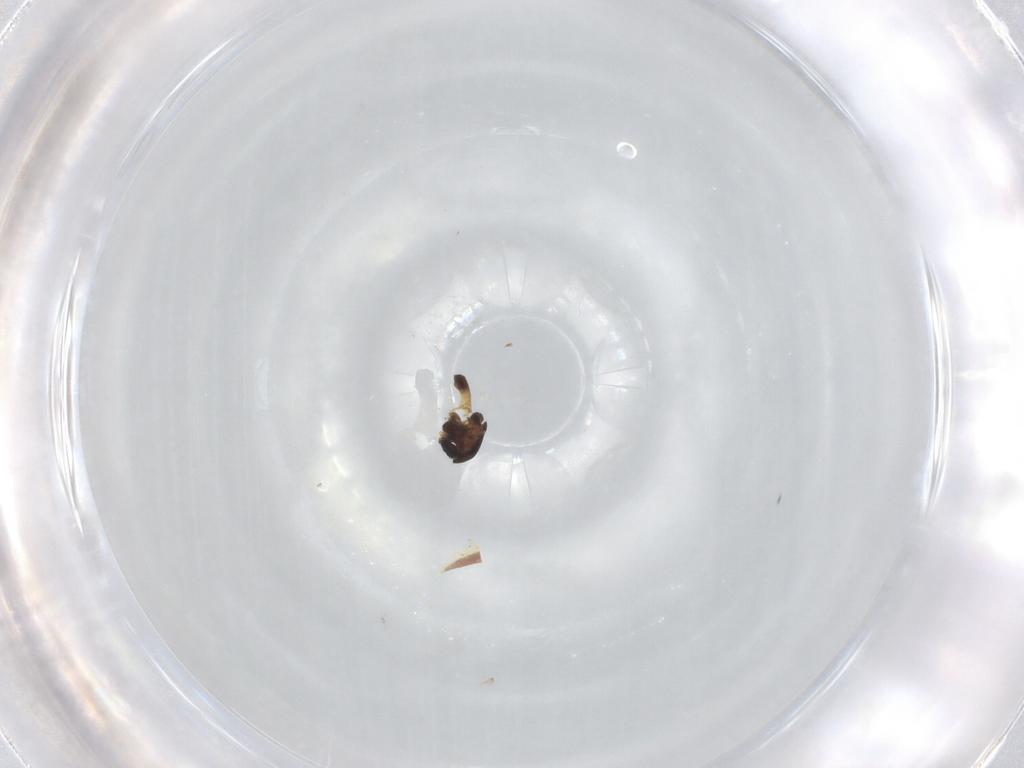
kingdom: Animalia
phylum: Arthropoda
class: Insecta
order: Diptera
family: Chironomidae
